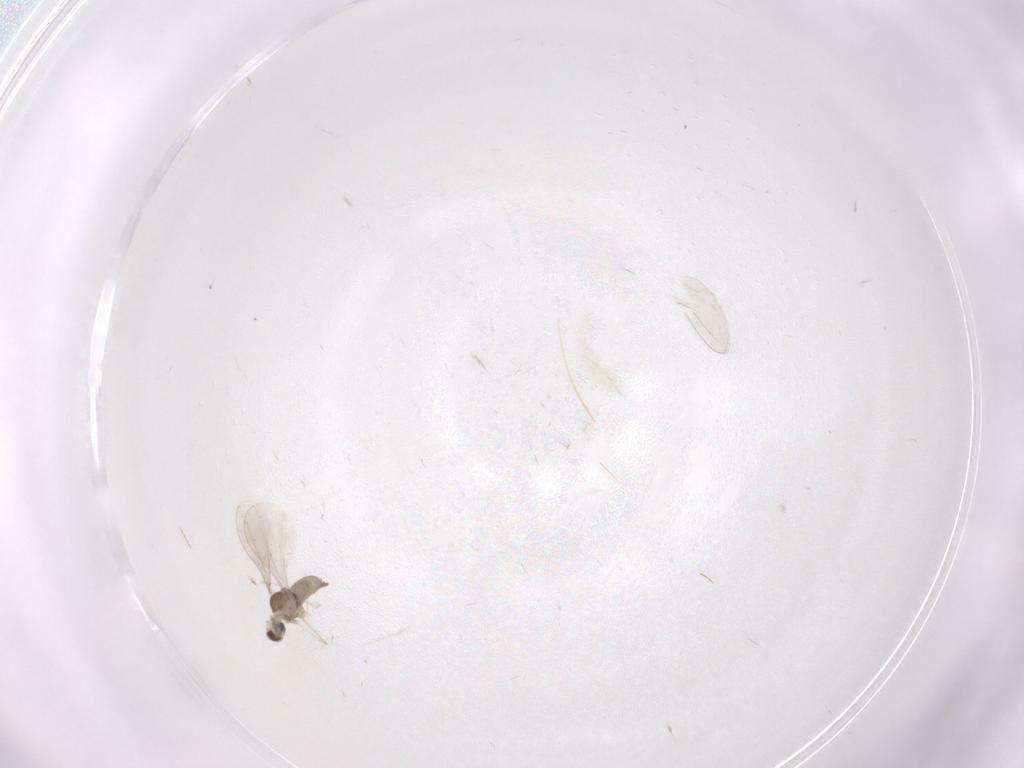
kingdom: Animalia
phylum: Arthropoda
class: Insecta
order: Diptera
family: Cecidomyiidae
